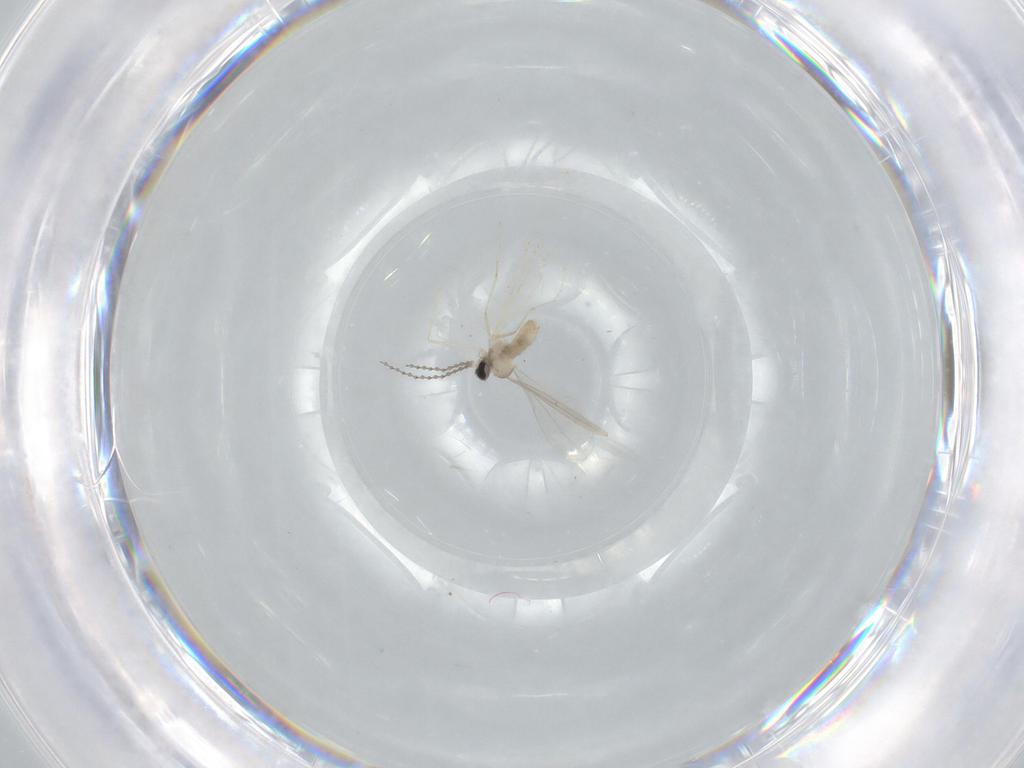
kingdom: Animalia
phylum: Arthropoda
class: Insecta
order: Diptera
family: Cecidomyiidae
